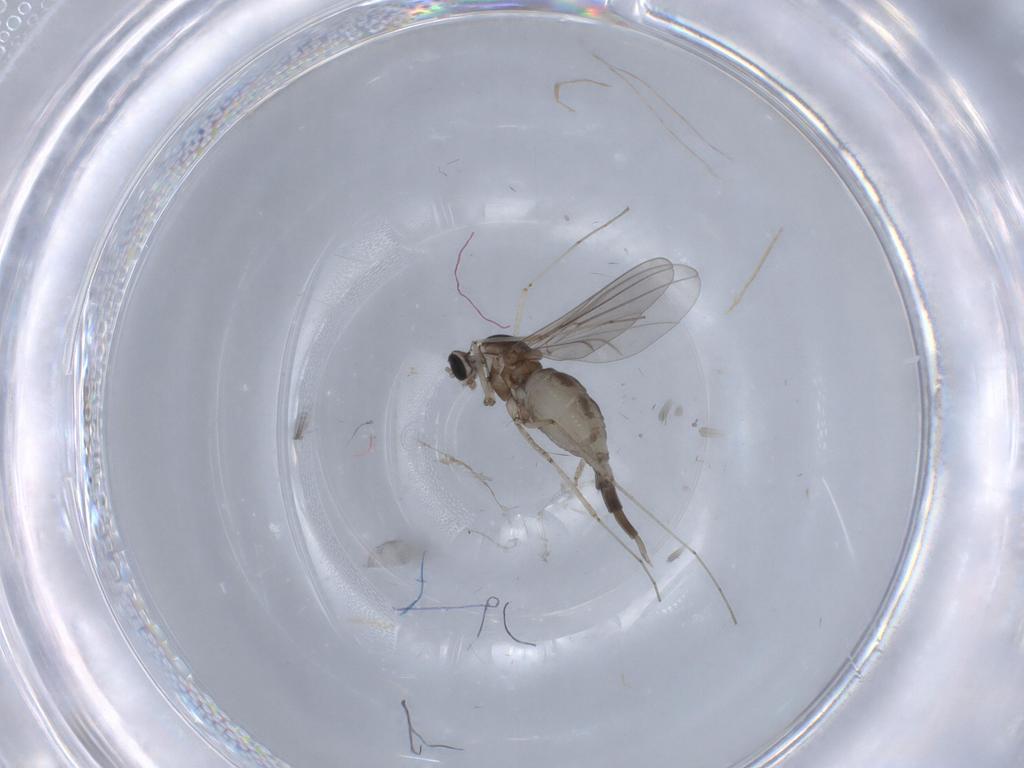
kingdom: Animalia
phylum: Arthropoda
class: Insecta
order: Diptera
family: Cecidomyiidae
